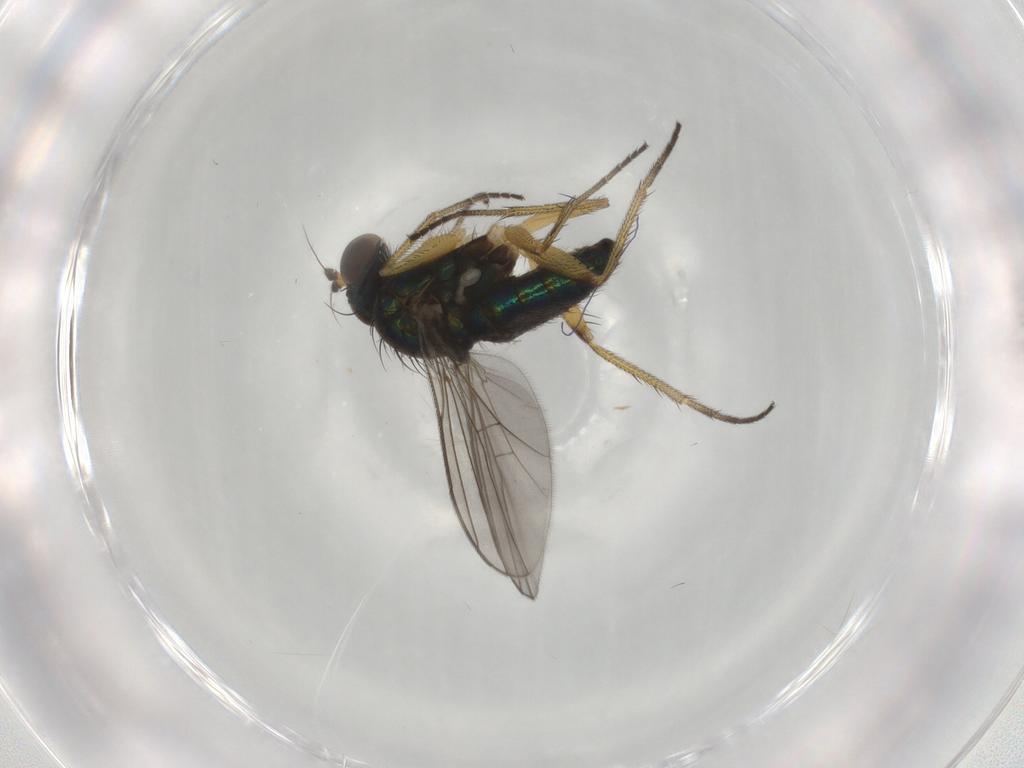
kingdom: Animalia
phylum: Arthropoda
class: Insecta
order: Diptera
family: Dolichopodidae
